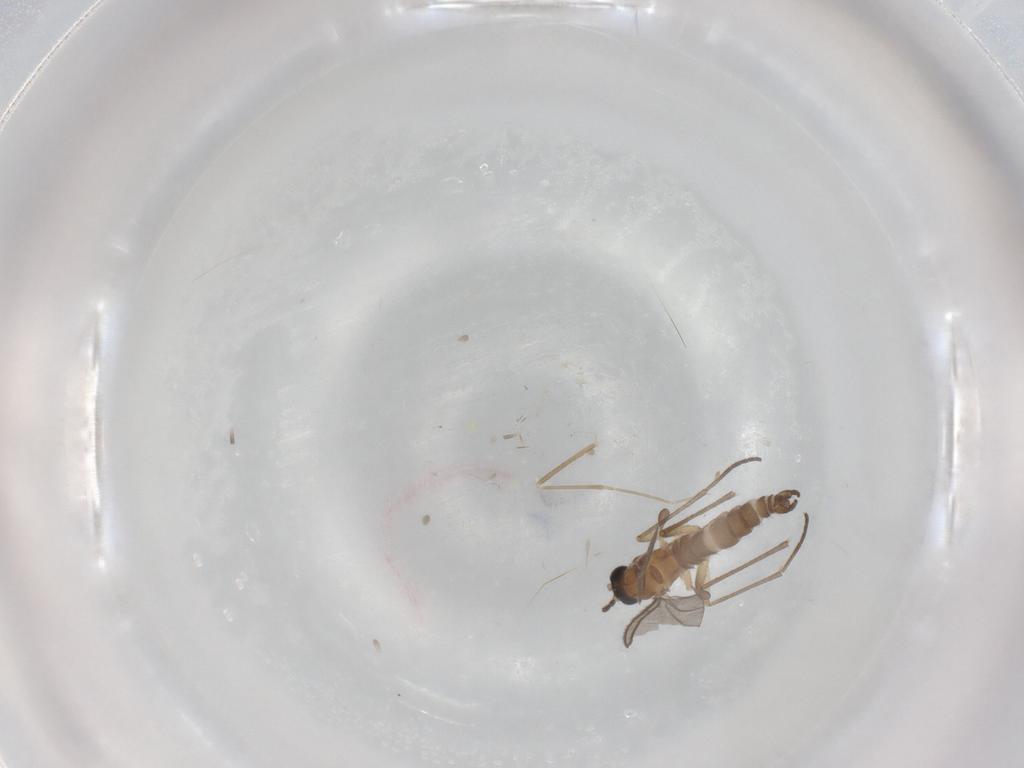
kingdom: Animalia
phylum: Arthropoda
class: Insecta
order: Diptera
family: Sciaridae
